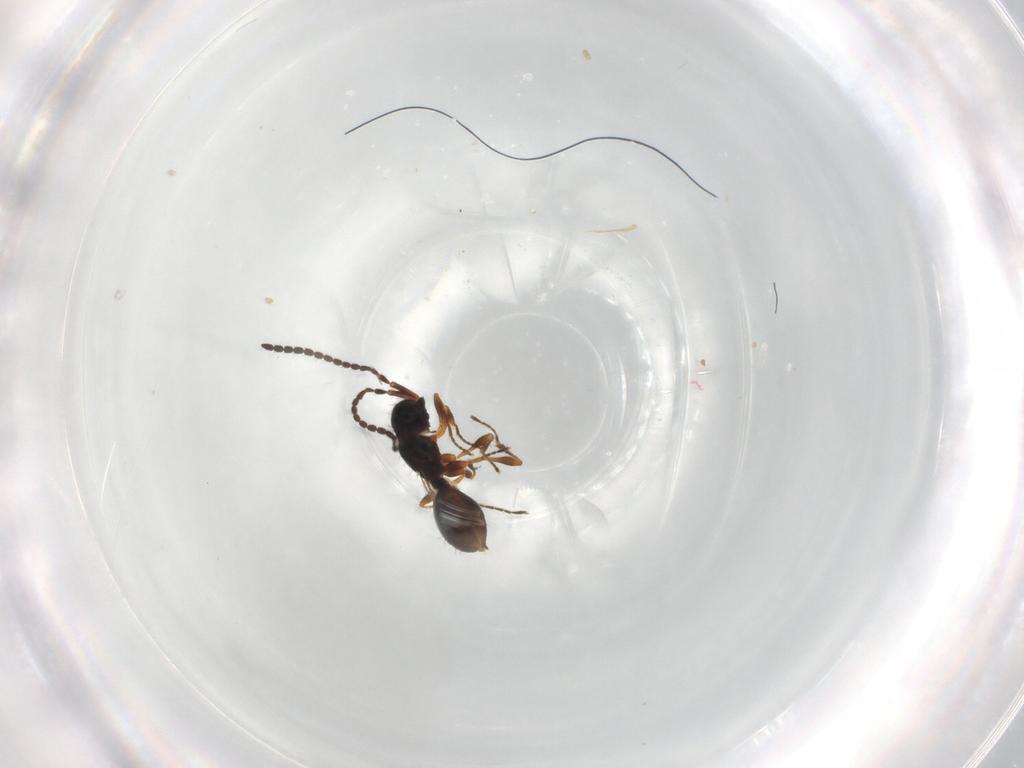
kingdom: Animalia
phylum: Arthropoda
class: Insecta
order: Hymenoptera
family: Diapriidae
